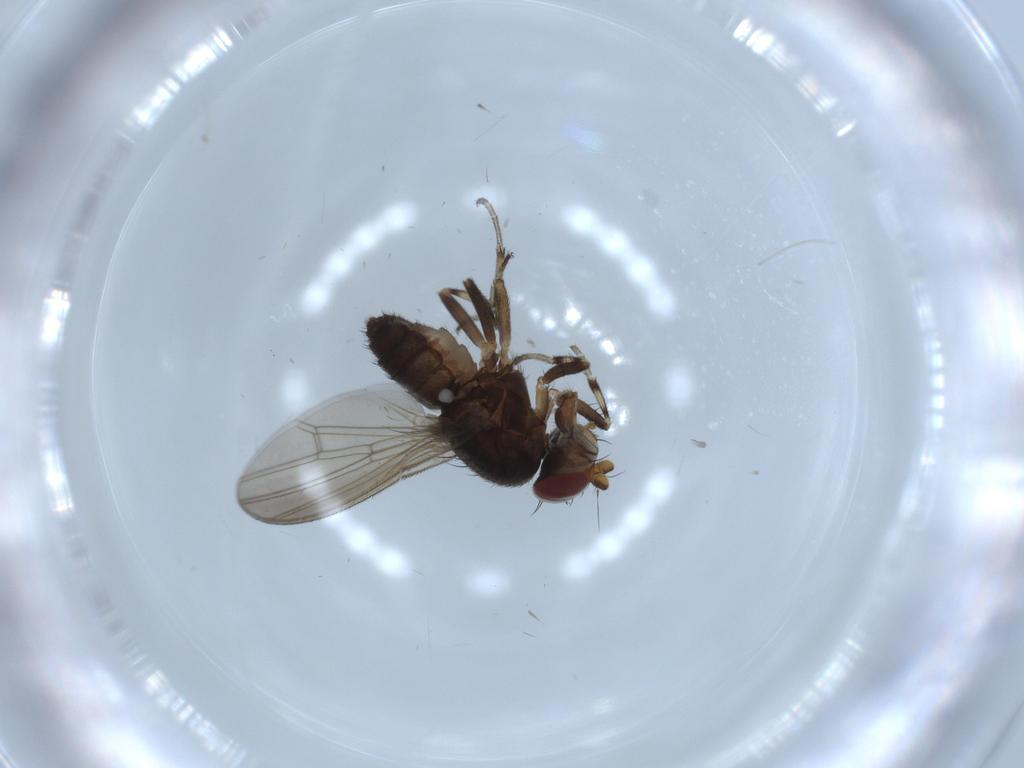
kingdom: Animalia
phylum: Arthropoda
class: Insecta
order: Diptera
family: Heleomyzidae
